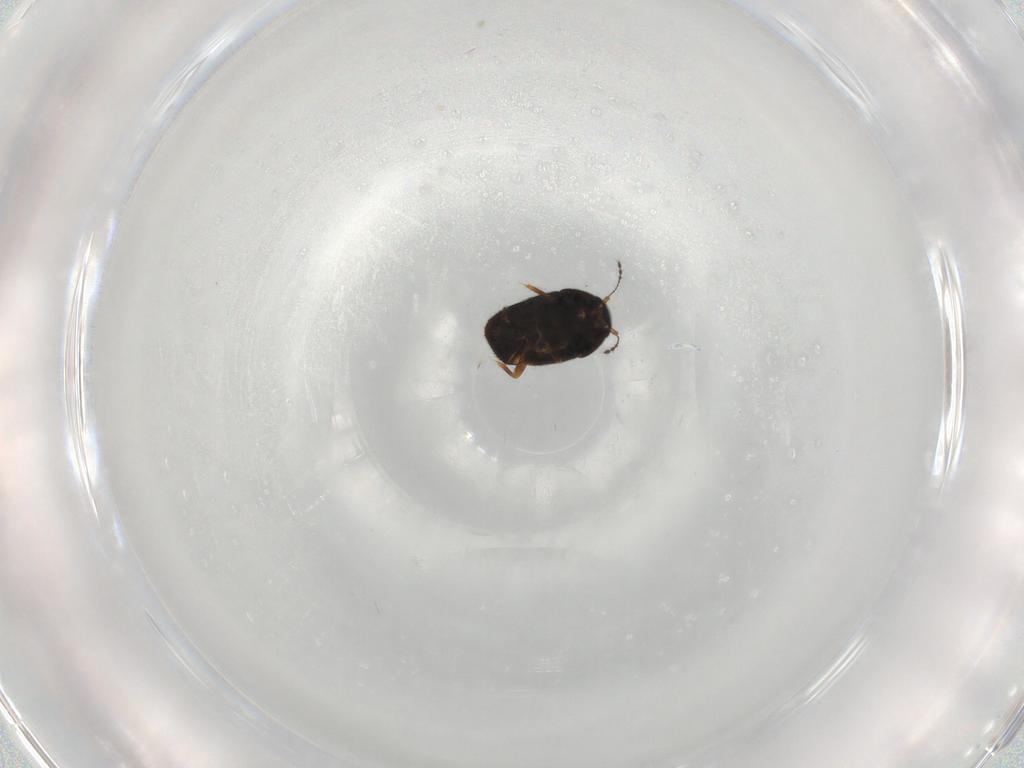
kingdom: Animalia
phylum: Arthropoda
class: Insecta
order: Coleoptera
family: Ptiliidae
